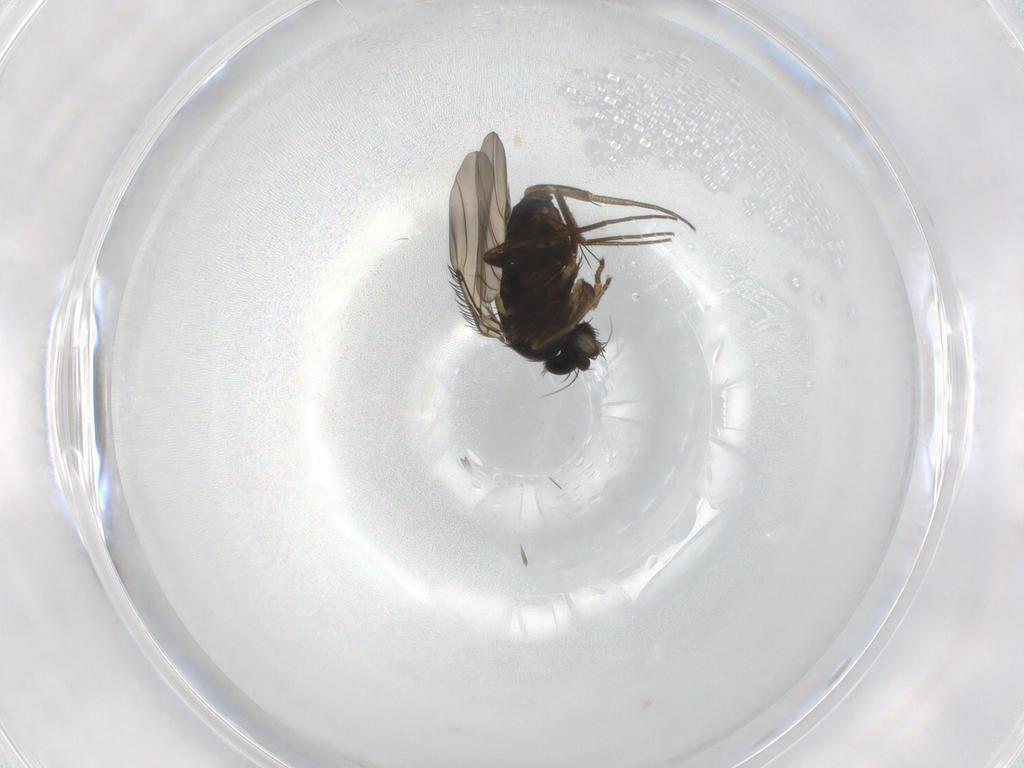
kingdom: Animalia
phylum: Arthropoda
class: Insecta
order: Diptera
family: Phoridae
